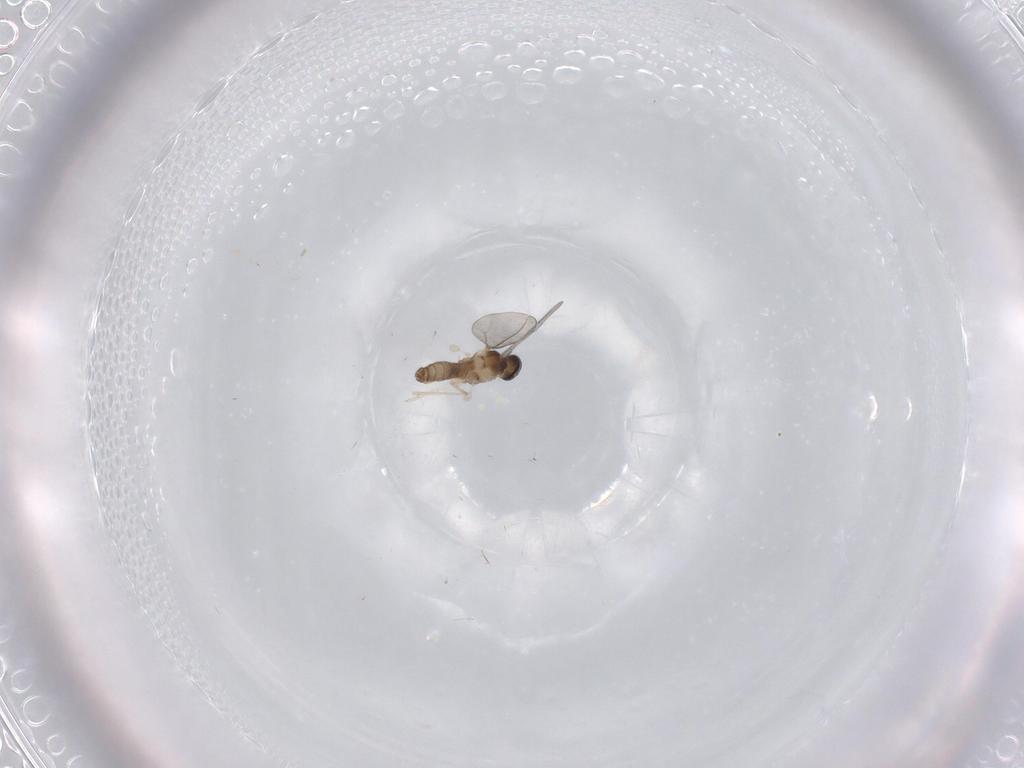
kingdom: Animalia
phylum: Arthropoda
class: Insecta
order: Diptera
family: Cecidomyiidae
